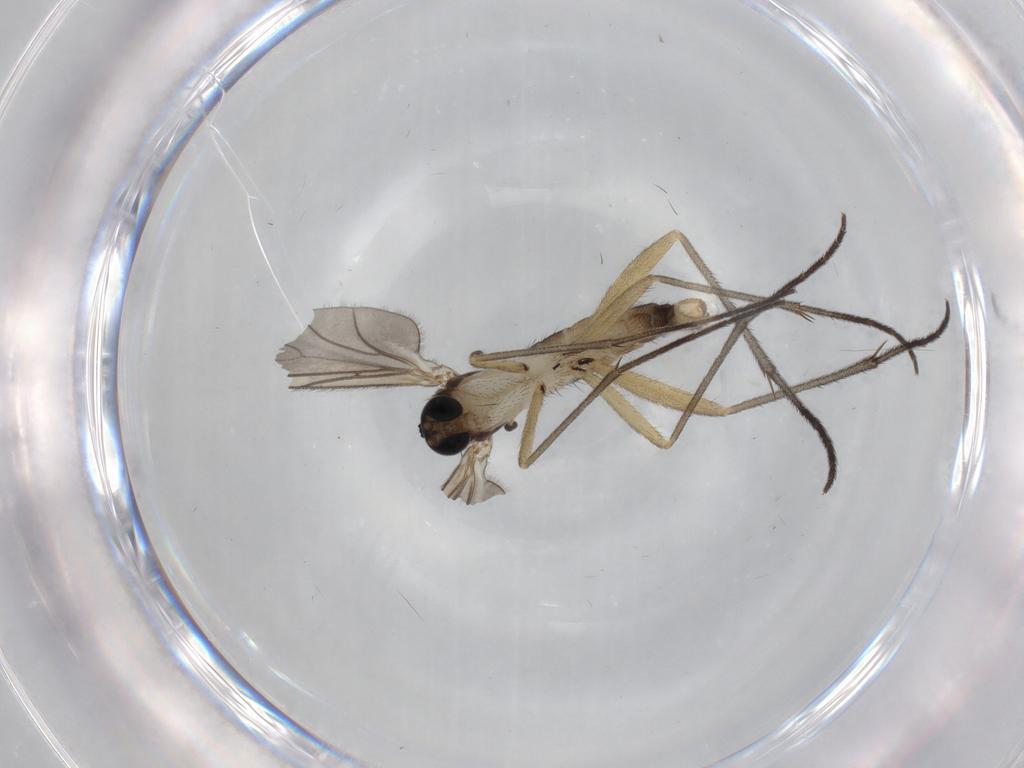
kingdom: Animalia
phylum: Arthropoda
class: Insecta
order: Diptera
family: Sciaridae
